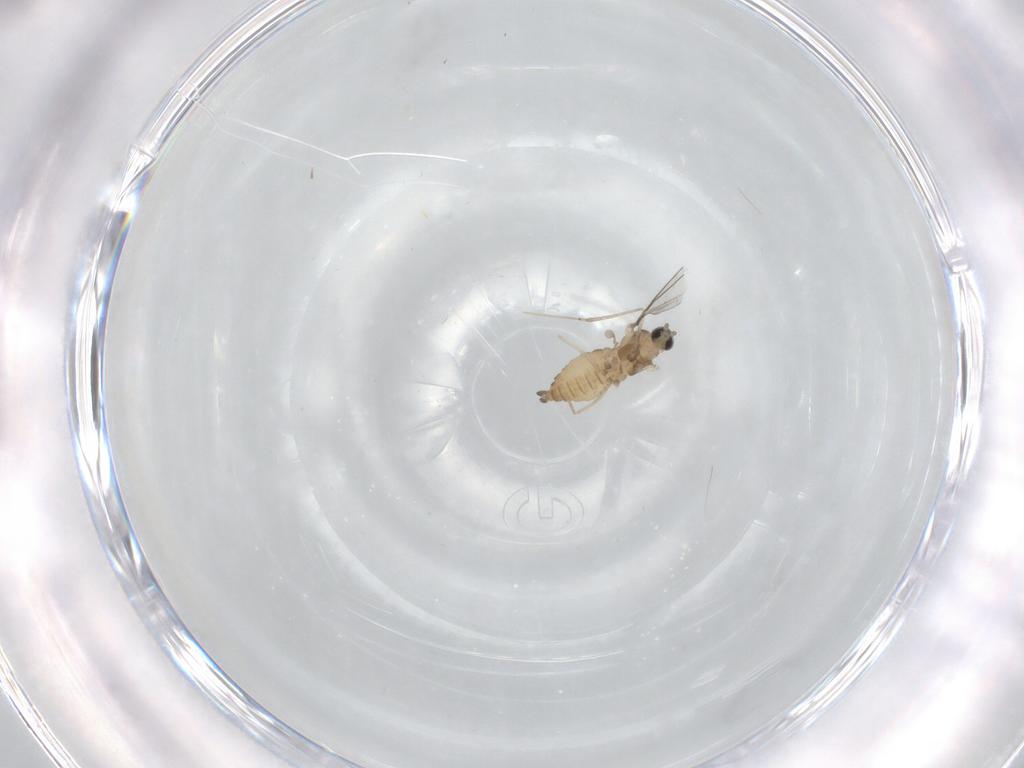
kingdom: Animalia
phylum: Arthropoda
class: Insecta
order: Diptera
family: Cecidomyiidae
